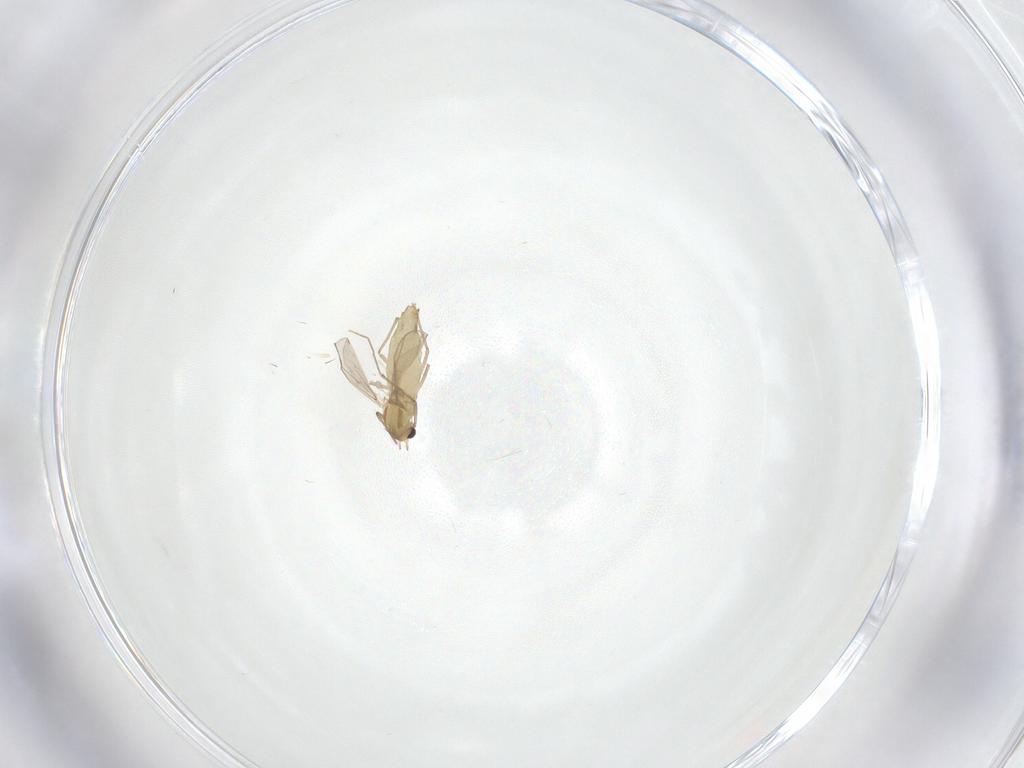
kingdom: Animalia
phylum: Arthropoda
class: Insecta
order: Diptera
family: Chironomidae
